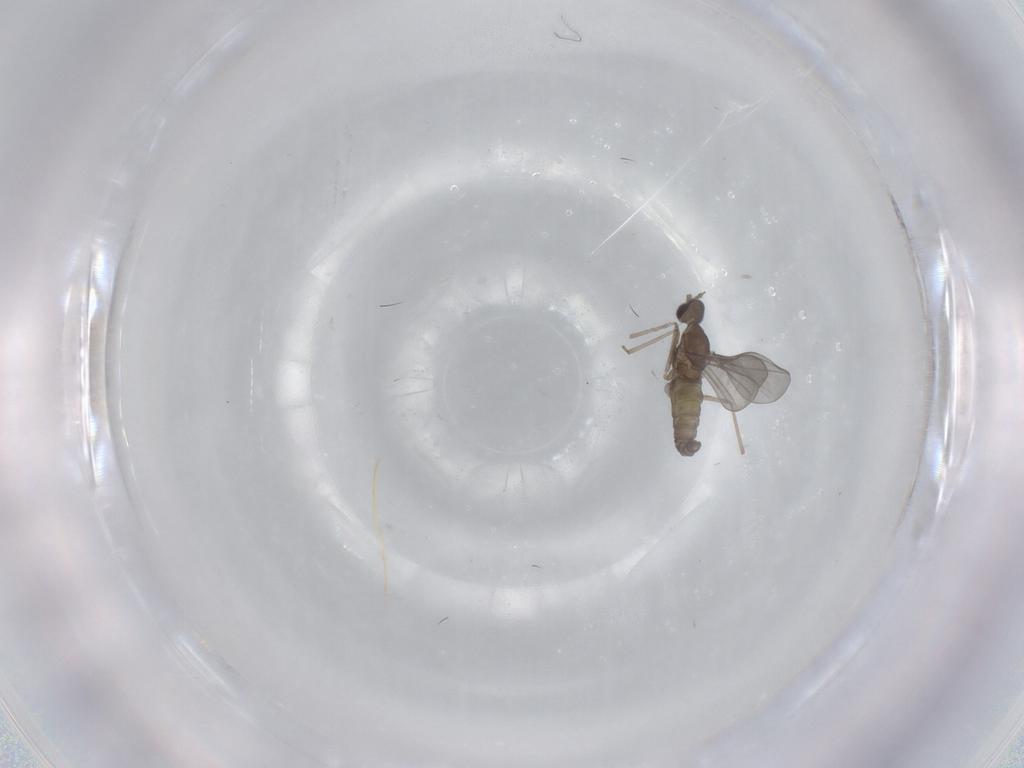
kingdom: Animalia
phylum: Arthropoda
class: Insecta
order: Diptera
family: Cecidomyiidae
